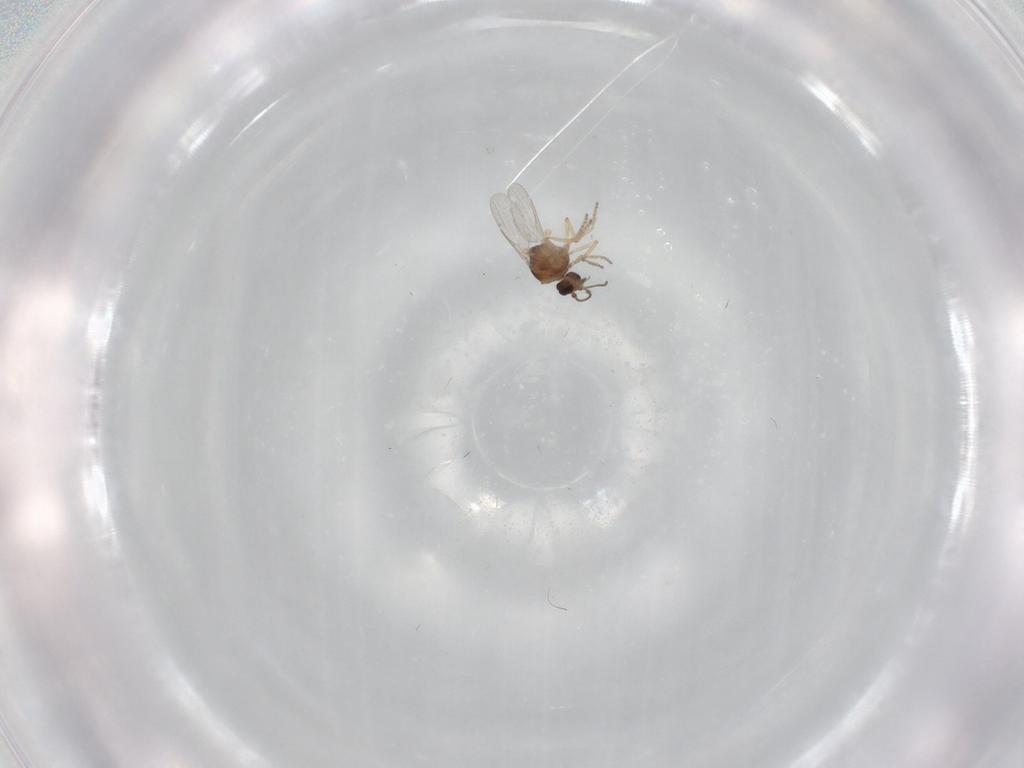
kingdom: Animalia
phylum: Arthropoda
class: Insecta
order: Diptera
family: Ceratopogonidae
